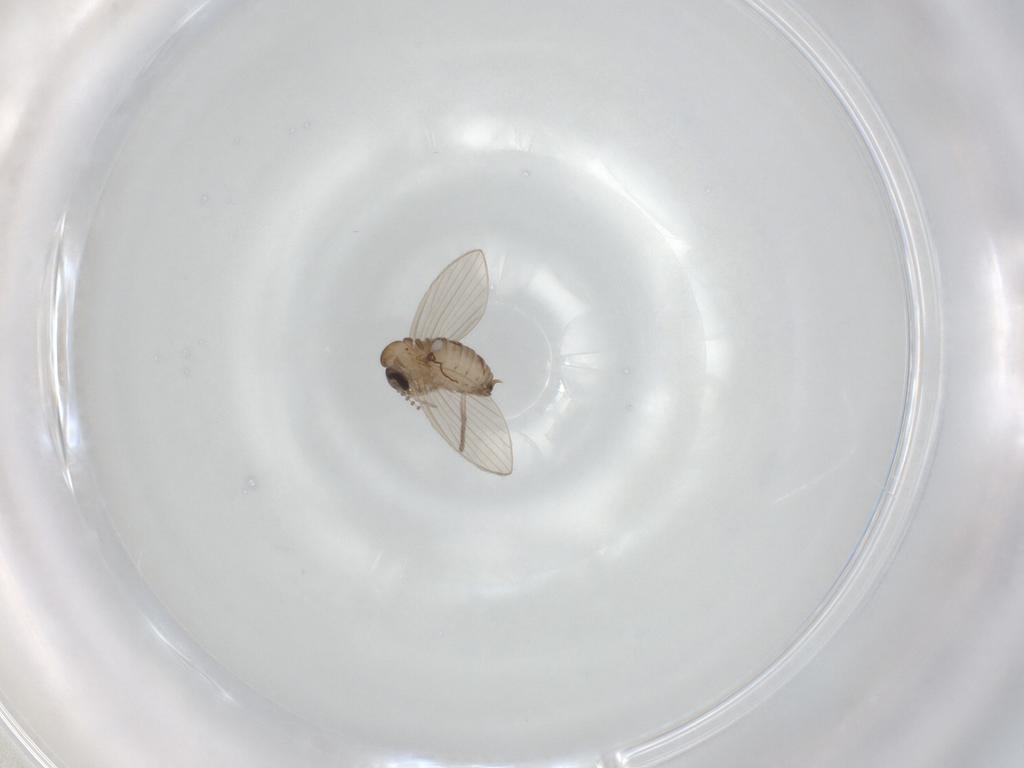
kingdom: Animalia
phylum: Arthropoda
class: Insecta
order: Diptera
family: Psychodidae
